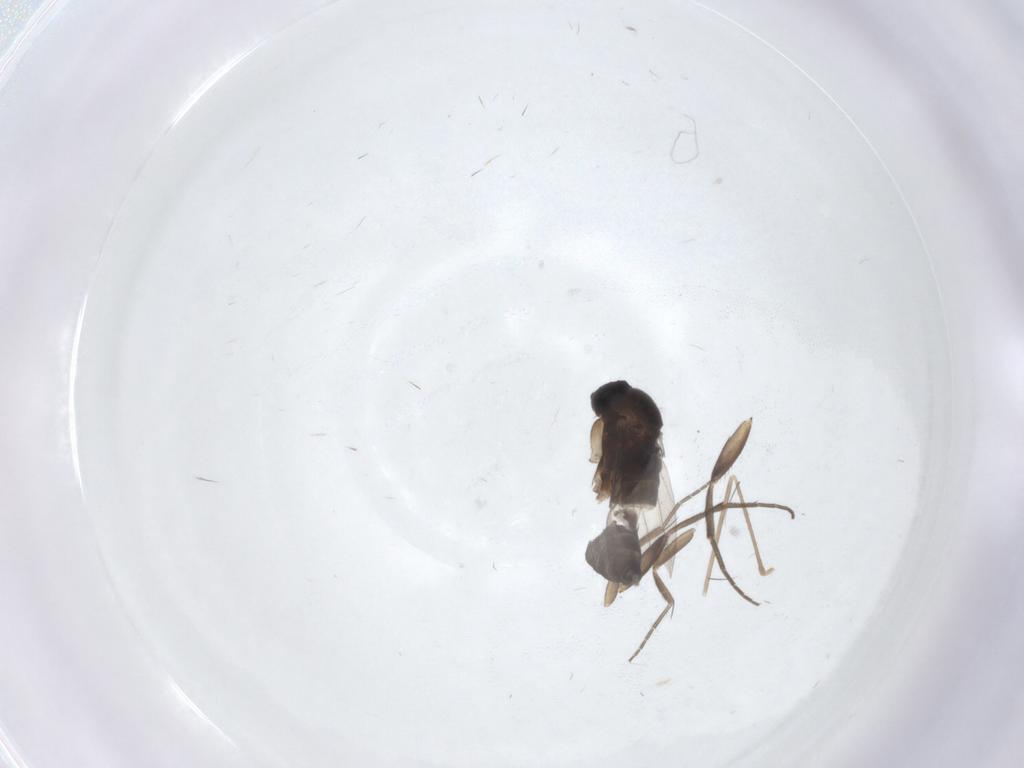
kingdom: Animalia
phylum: Arthropoda
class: Insecta
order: Diptera
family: Phoridae
